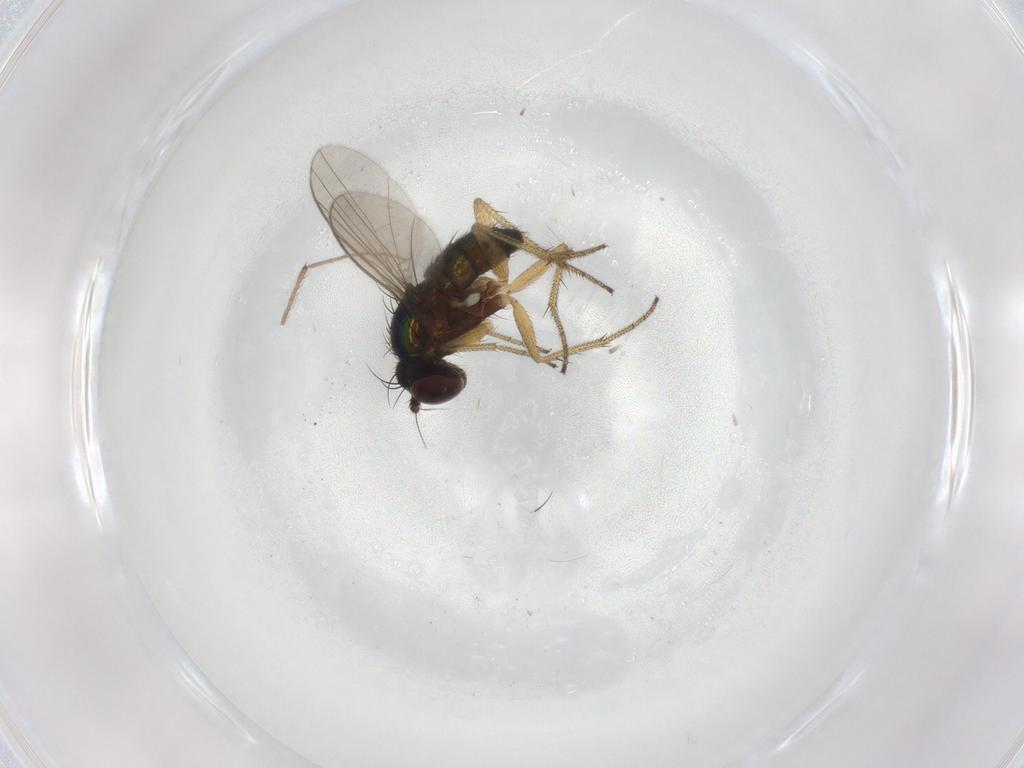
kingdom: Animalia
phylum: Arthropoda
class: Insecta
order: Diptera
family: Dolichopodidae
